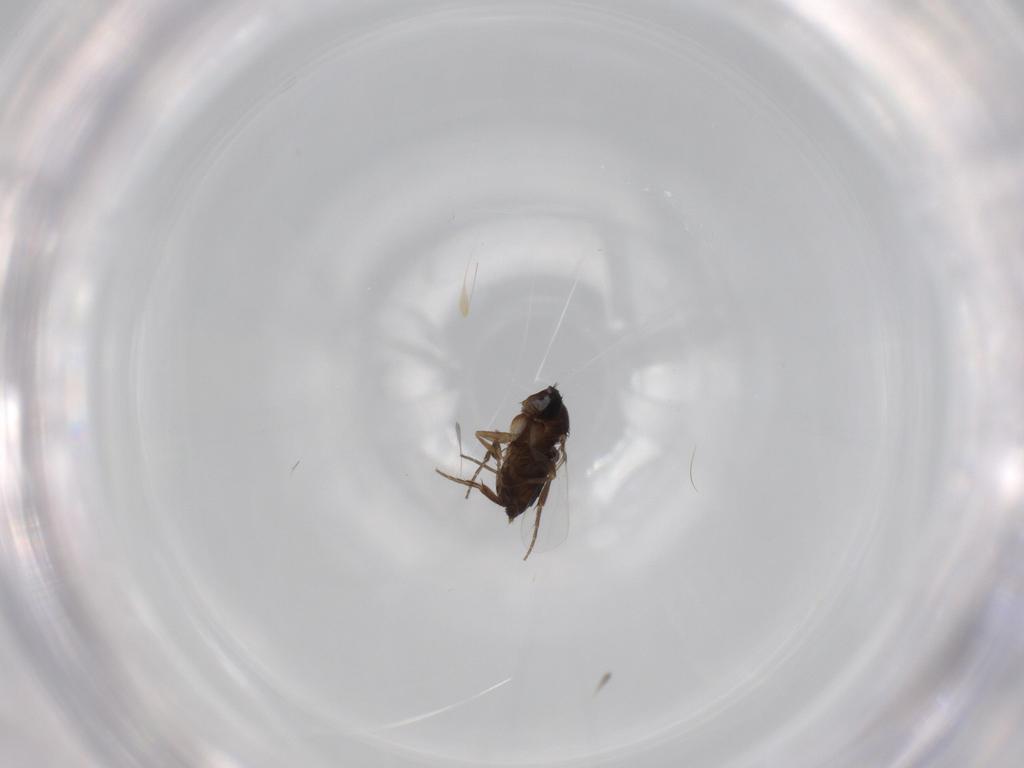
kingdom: Animalia
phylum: Arthropoda
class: Insecta
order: Diptera
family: Phoridae
